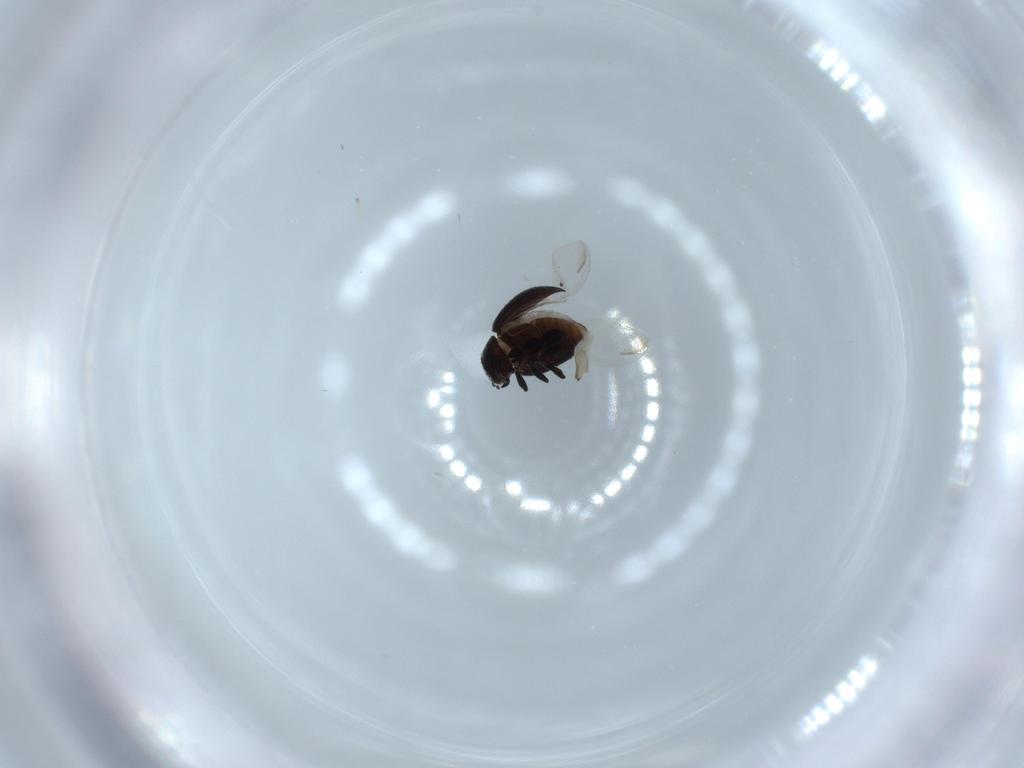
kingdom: Animalia
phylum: Arthropoda
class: Insecta
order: Coleoptera
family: Coccinellidae
